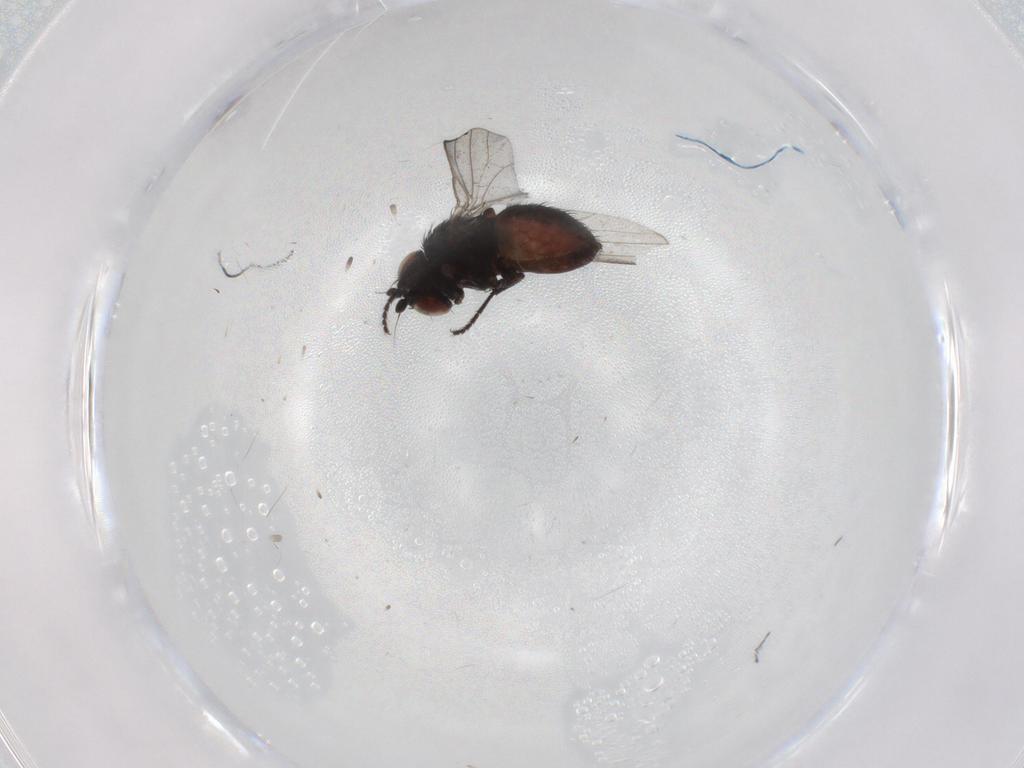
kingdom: Animalia
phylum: Arthropoda
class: Insecta
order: Diptera
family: Milichiidae
